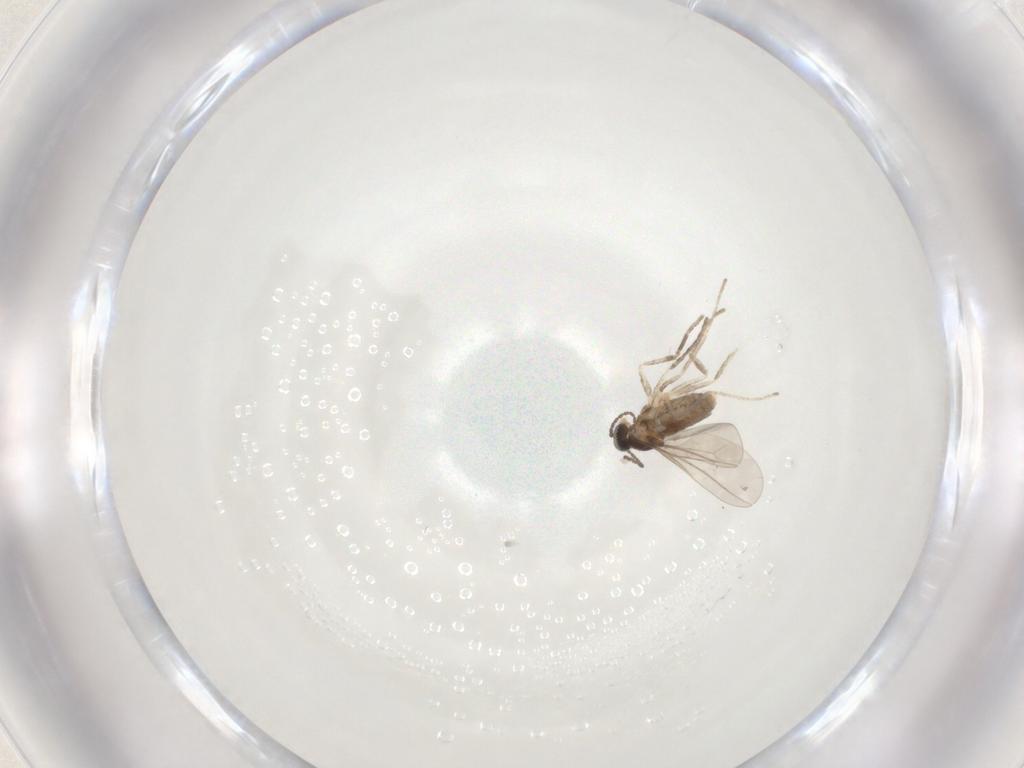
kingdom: Animalia
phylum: Arthropoda
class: Insecta
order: Diptera
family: Cecidomyiidae
